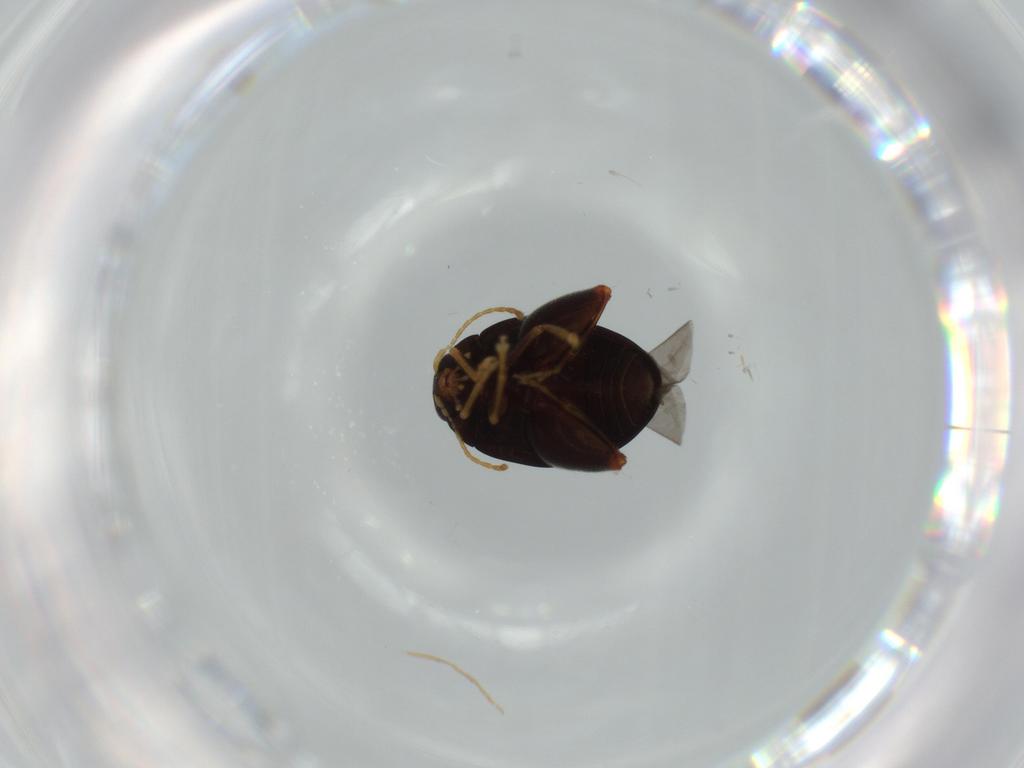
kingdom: Animalia
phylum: Arthropoda
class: Insecta
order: Coleoptera
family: Chrysomelidae
